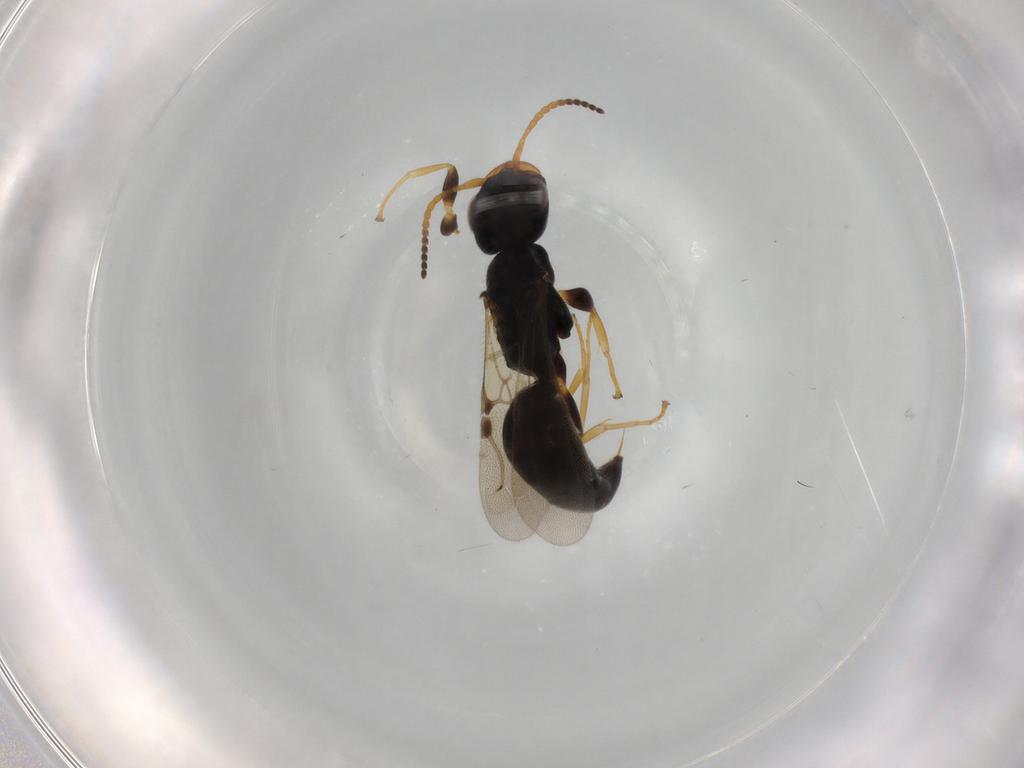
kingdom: Animalia
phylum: Arthropoda
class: Insecta
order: Hymenoptera
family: Bethylidae
